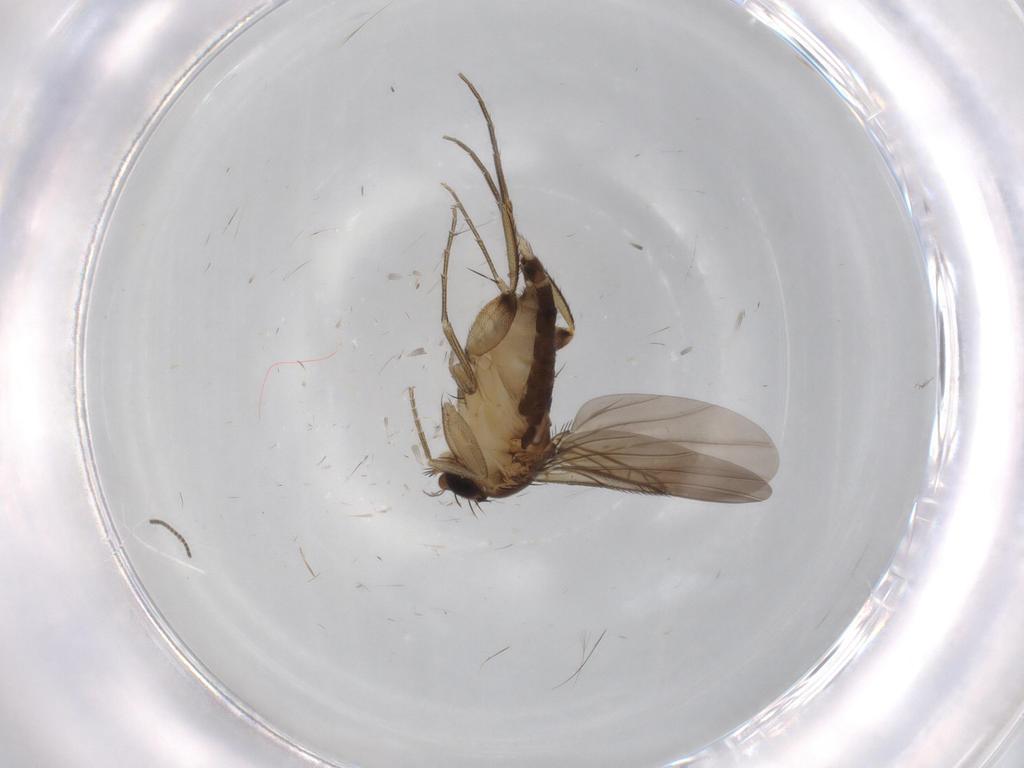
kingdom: Animalia
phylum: Arthropoda
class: Insecta
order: Diptera
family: Phoridae
